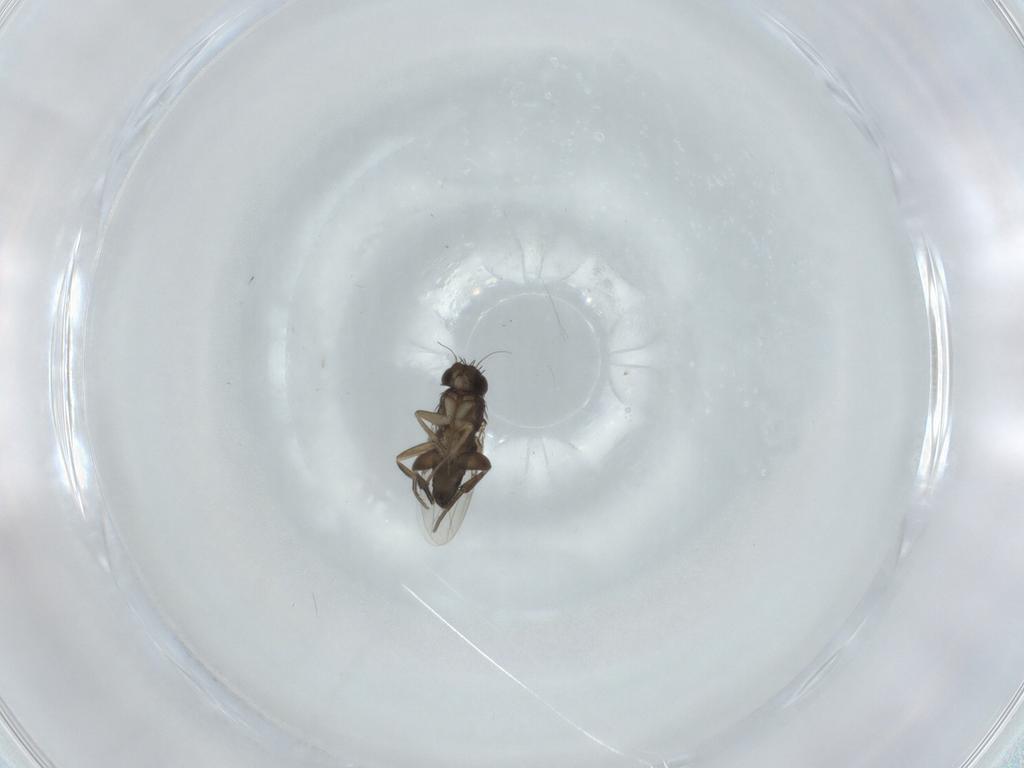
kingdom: Animalia
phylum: Arthropoda
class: Insecta
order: Diptera
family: Phoridae
